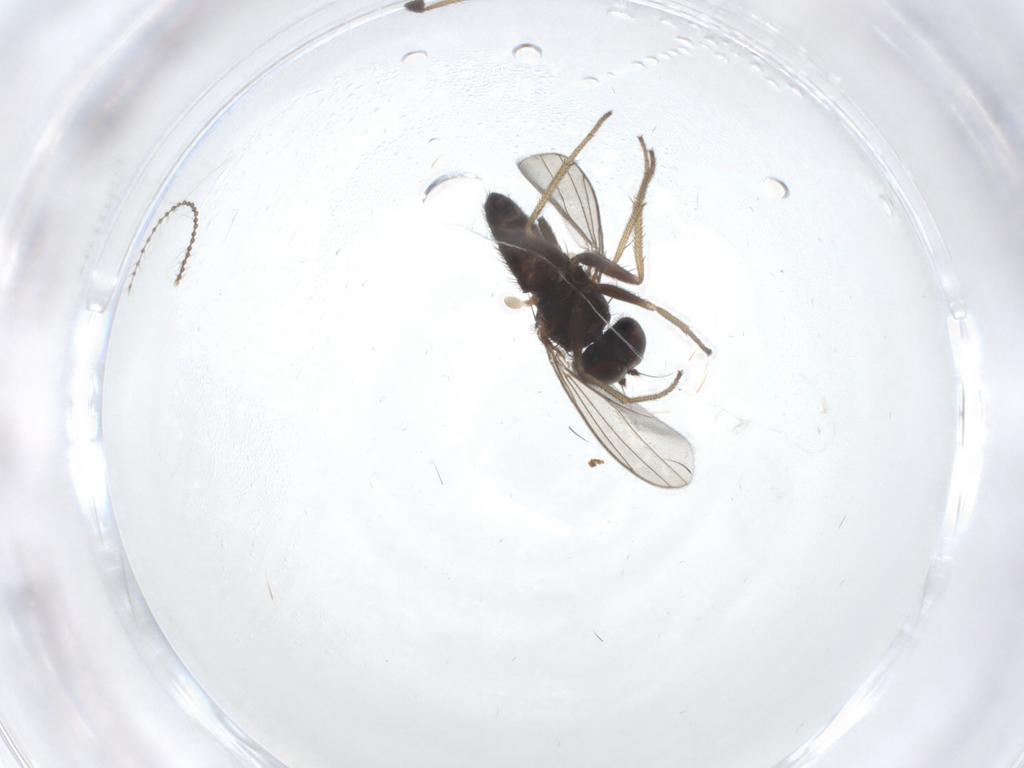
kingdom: Animalia
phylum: Arthropoda
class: Insecta
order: Diptera
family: Cecidomyiidae
